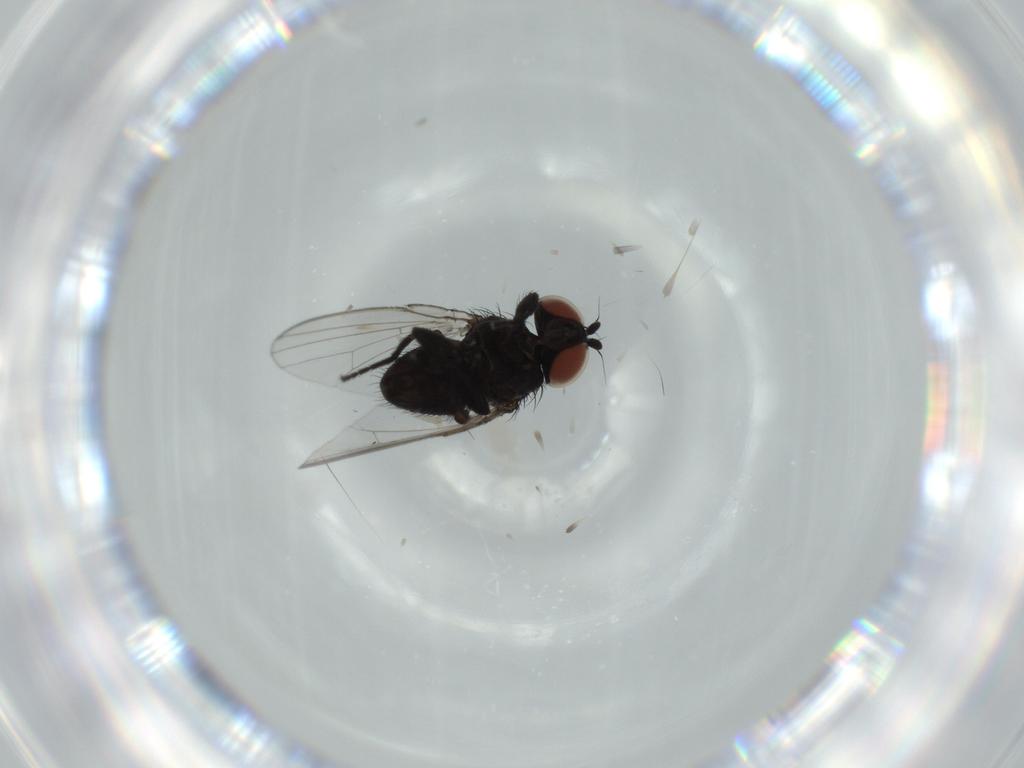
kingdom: Animalia
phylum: Arthropoda
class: Insecta
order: Diptera
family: Milichiidae
